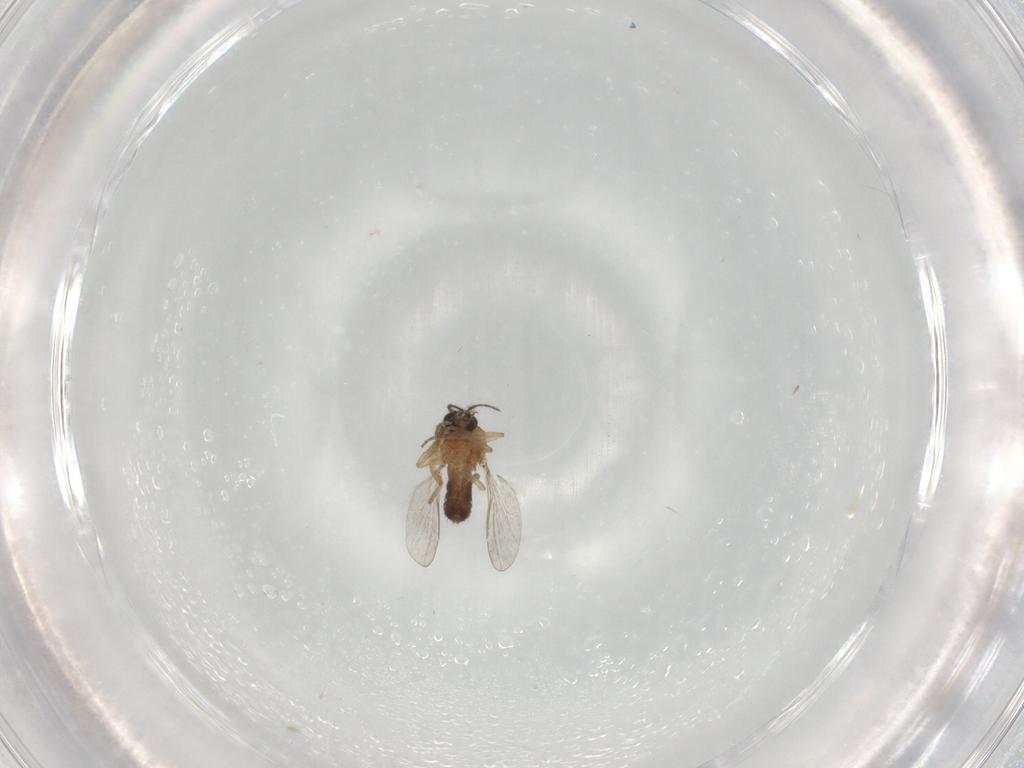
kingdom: Animalia
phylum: Arthropoda
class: Insecta
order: Diptera
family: Ceratopogonidae
